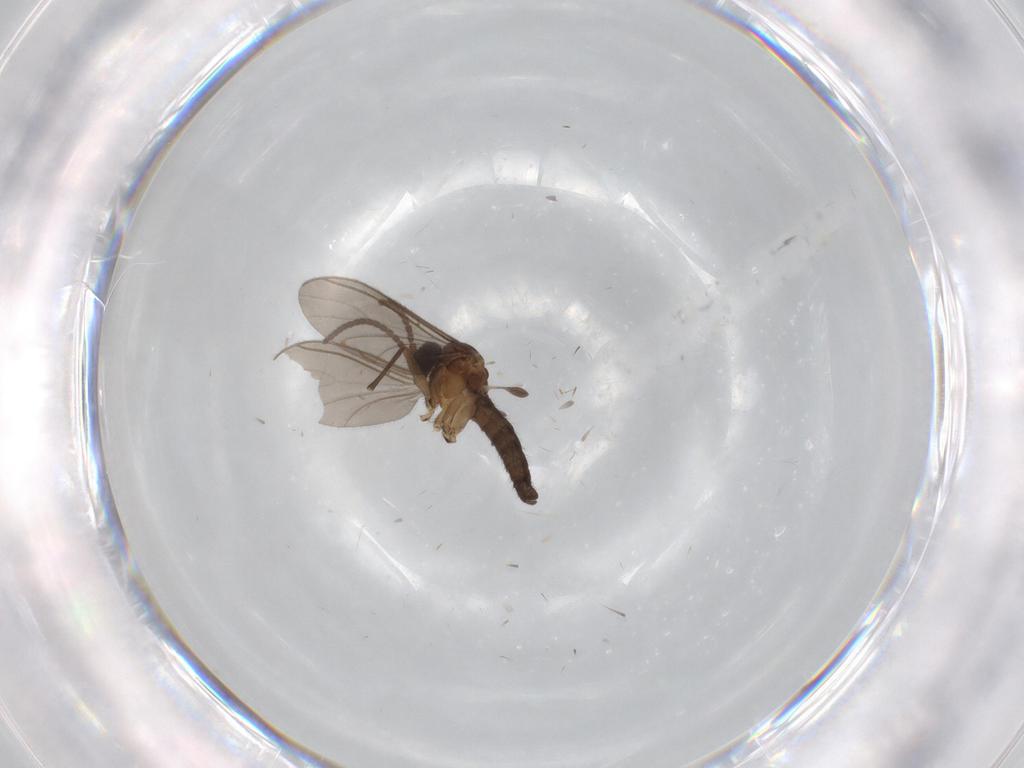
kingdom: Animalia
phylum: Arthropoda
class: Insecta
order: Diptera
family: Sciaridae
